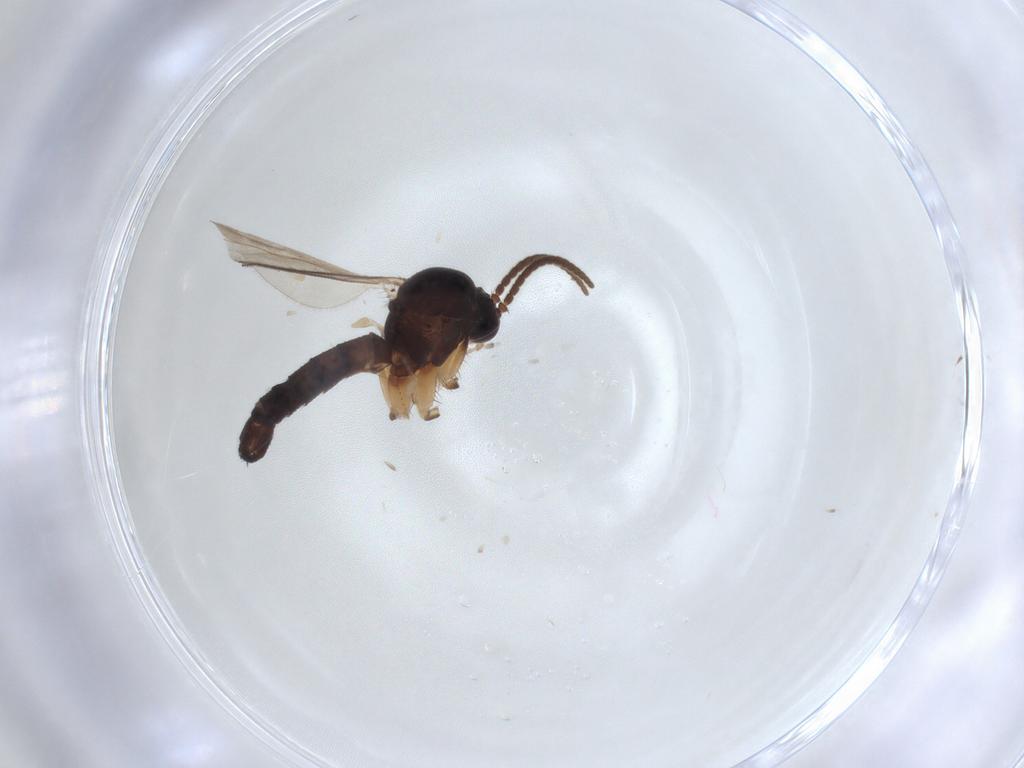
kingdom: Animalia
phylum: Arthropoda
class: Insecta
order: Diptera
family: Mycetophilidae
